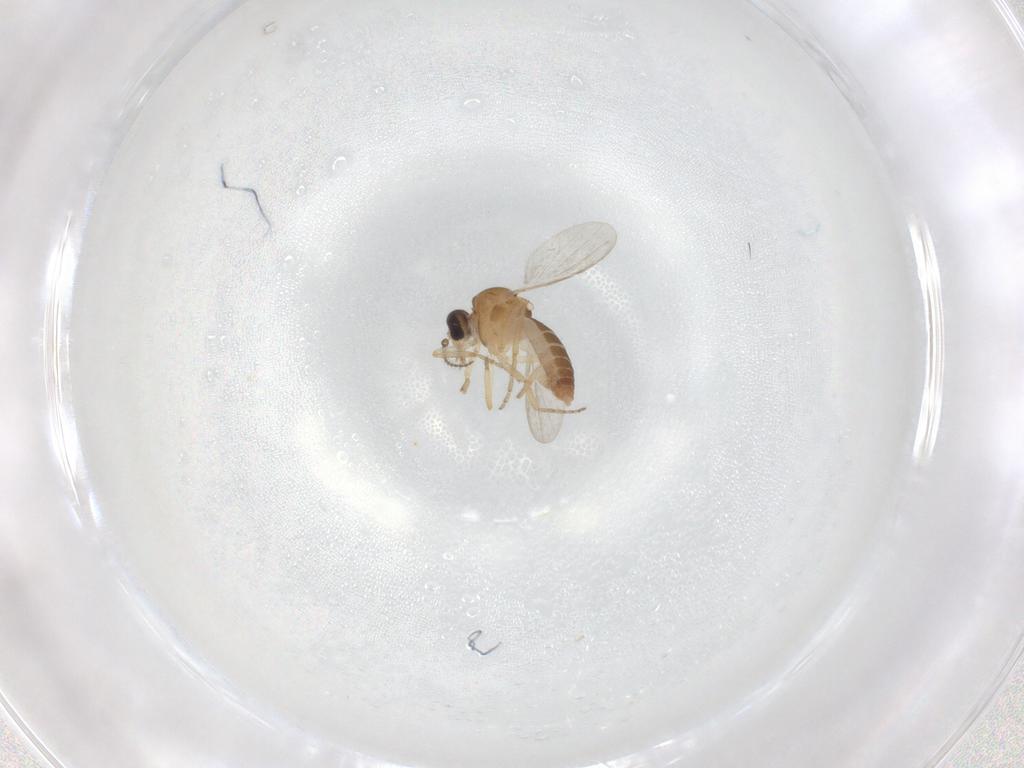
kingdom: Animalia
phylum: Arthropoda
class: Insecta
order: Diptera
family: Ceratopogonidae
